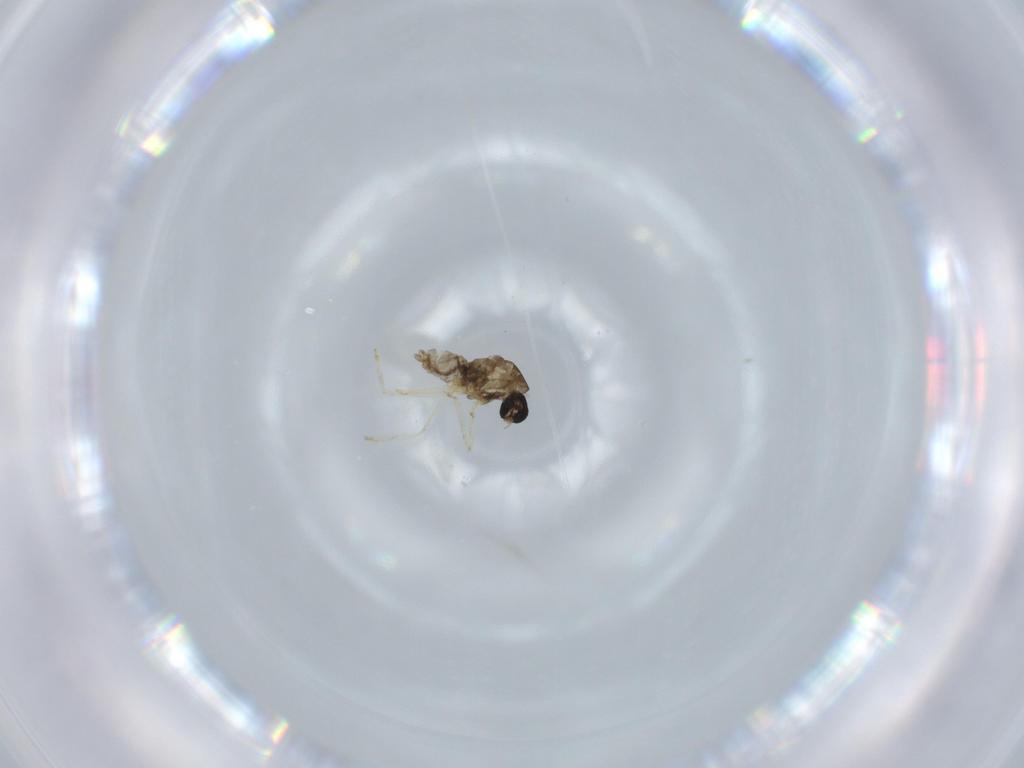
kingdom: Animalia
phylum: Arthropoda
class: Insecta
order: Diptera
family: Cecidomyiidae
